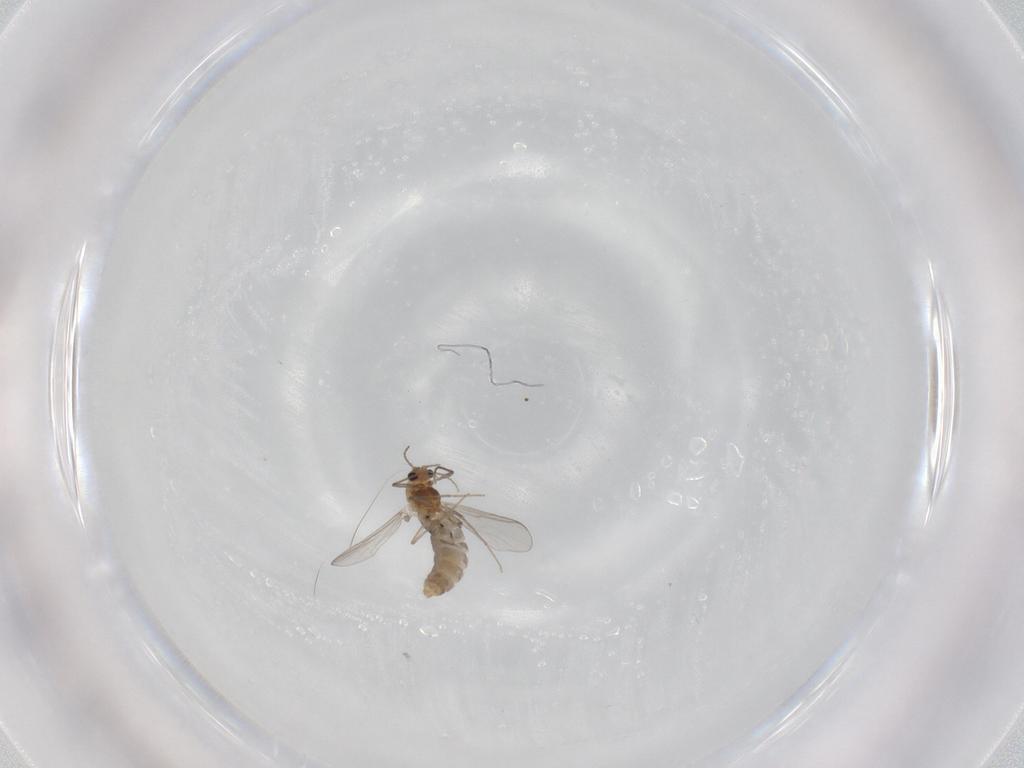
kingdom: Animalia
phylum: Arthropoda
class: Insecta
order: Diptera
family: Chironomidae
